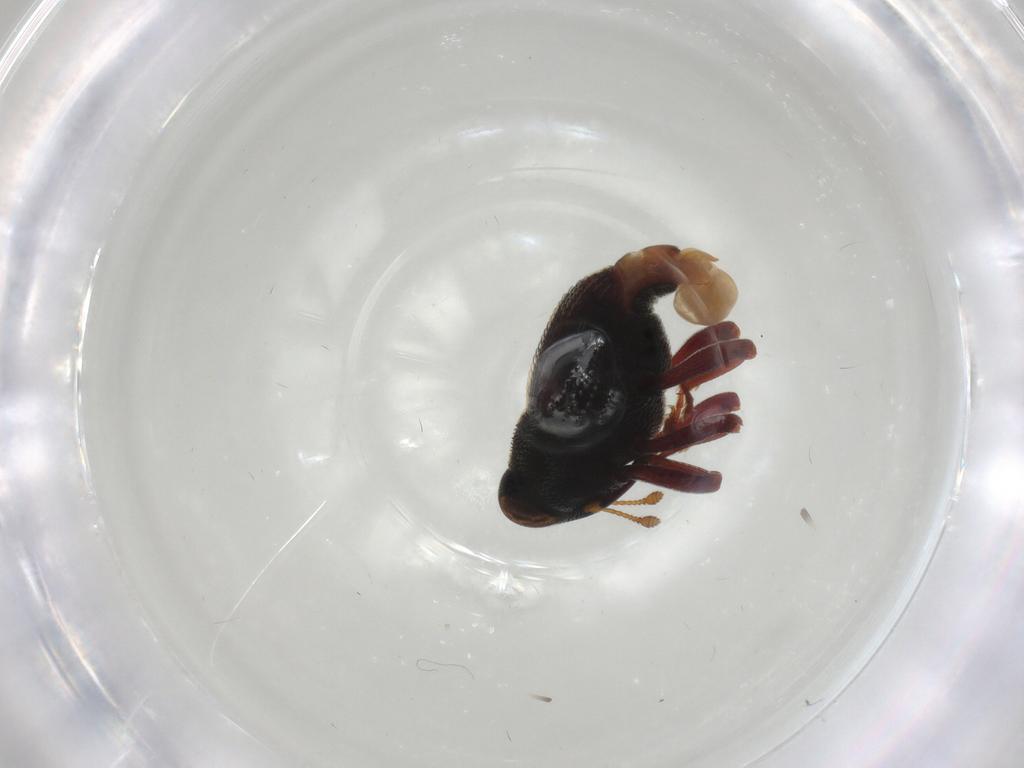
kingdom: Animalia
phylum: Arthropoda
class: Insecta
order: Coleoptera
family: Curculionidae
